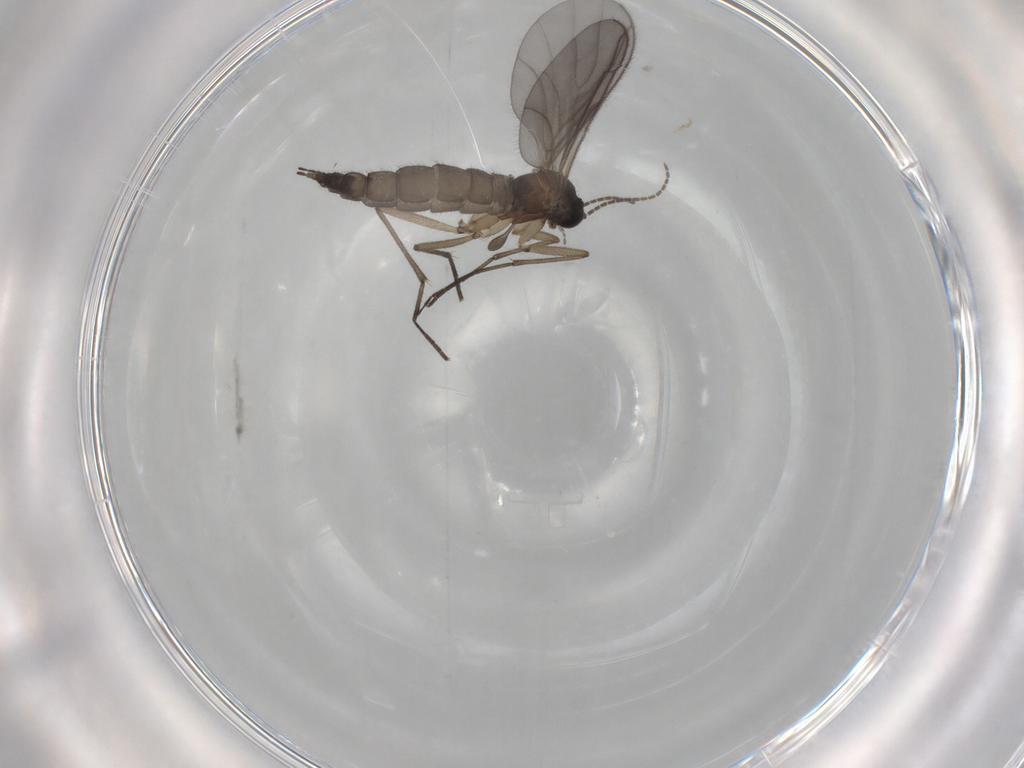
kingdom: Animalia
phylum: Arthropoda
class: Insecta
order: Diptera
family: Sciaridae
